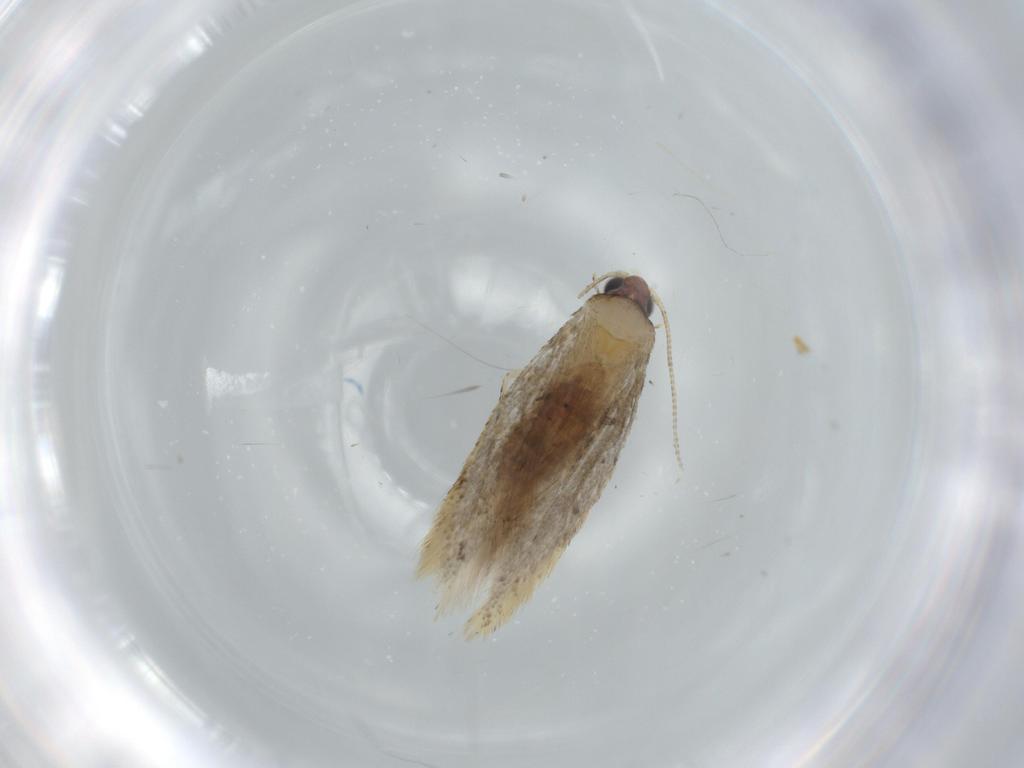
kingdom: Animalia
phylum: Arthropoda
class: Insecta
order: Lepidoptera
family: Tineidae
